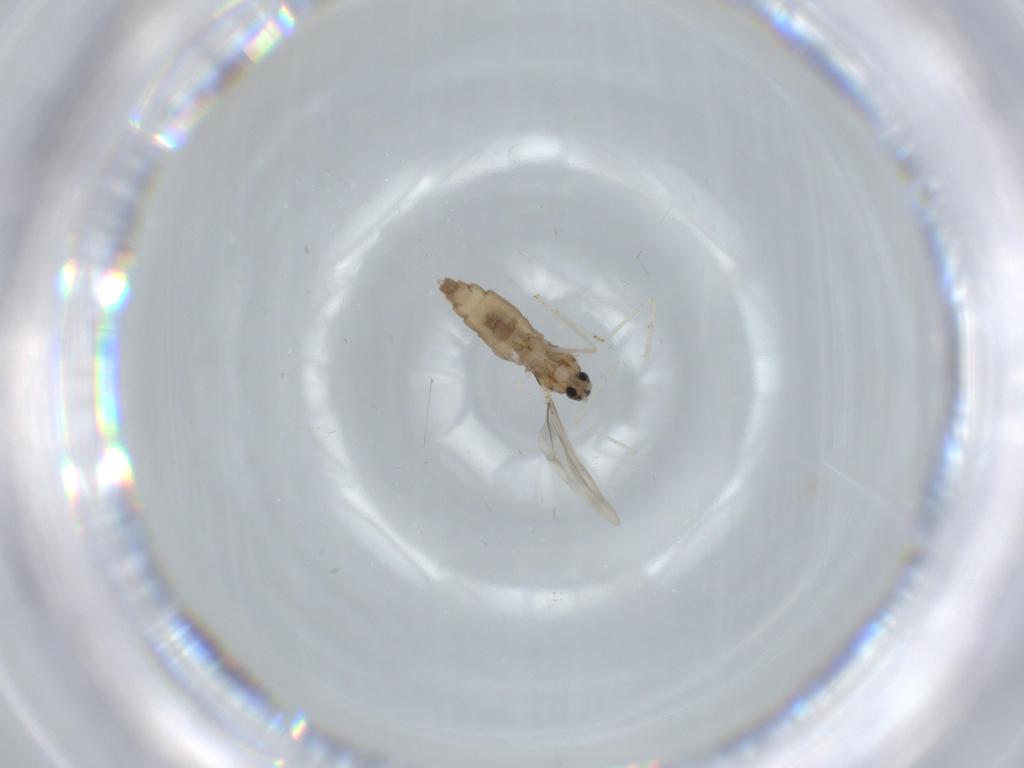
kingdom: Animalia
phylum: Arthropoda
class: Insecta
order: Diptera
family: Cecidomyiidae
